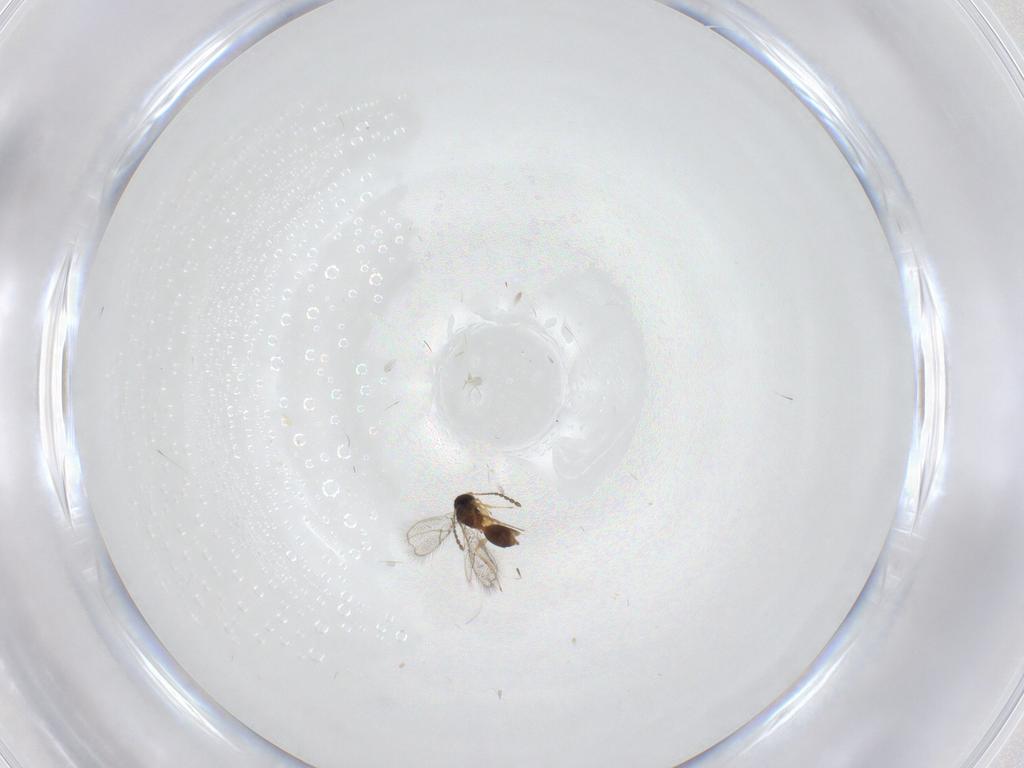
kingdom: Animalia
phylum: Arthropoda
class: Insecta
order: Hymenoptera
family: Figitidae
